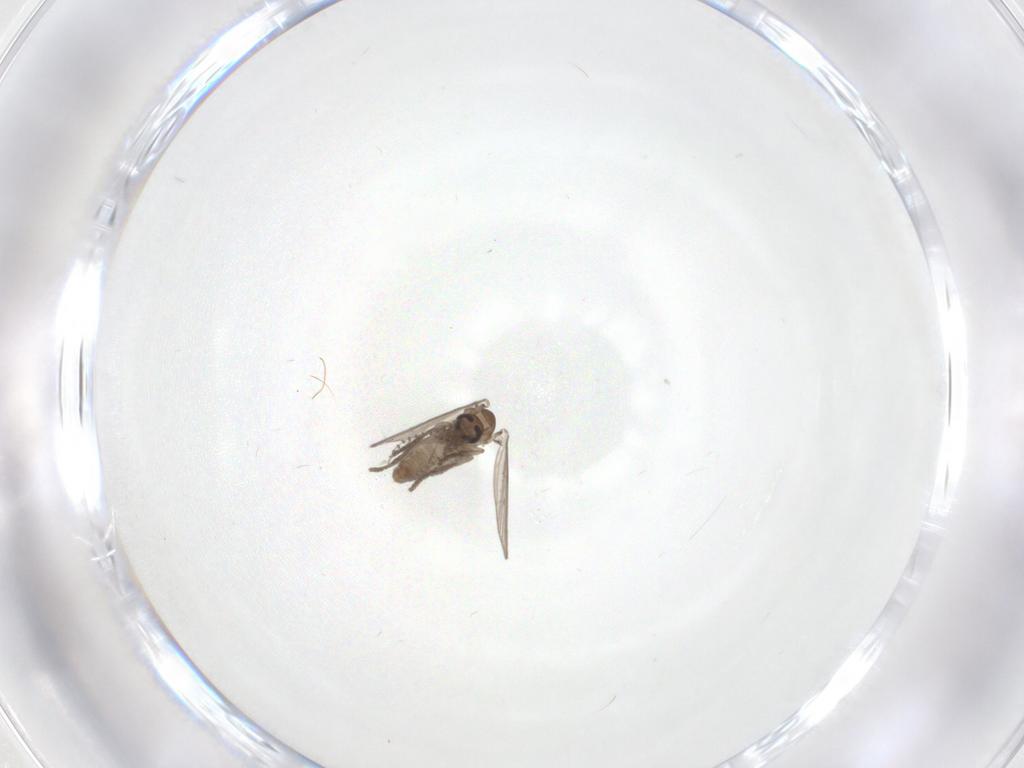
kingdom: Animalia
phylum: Arthropoda
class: Insecta
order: Diptera
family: Psychodidae
